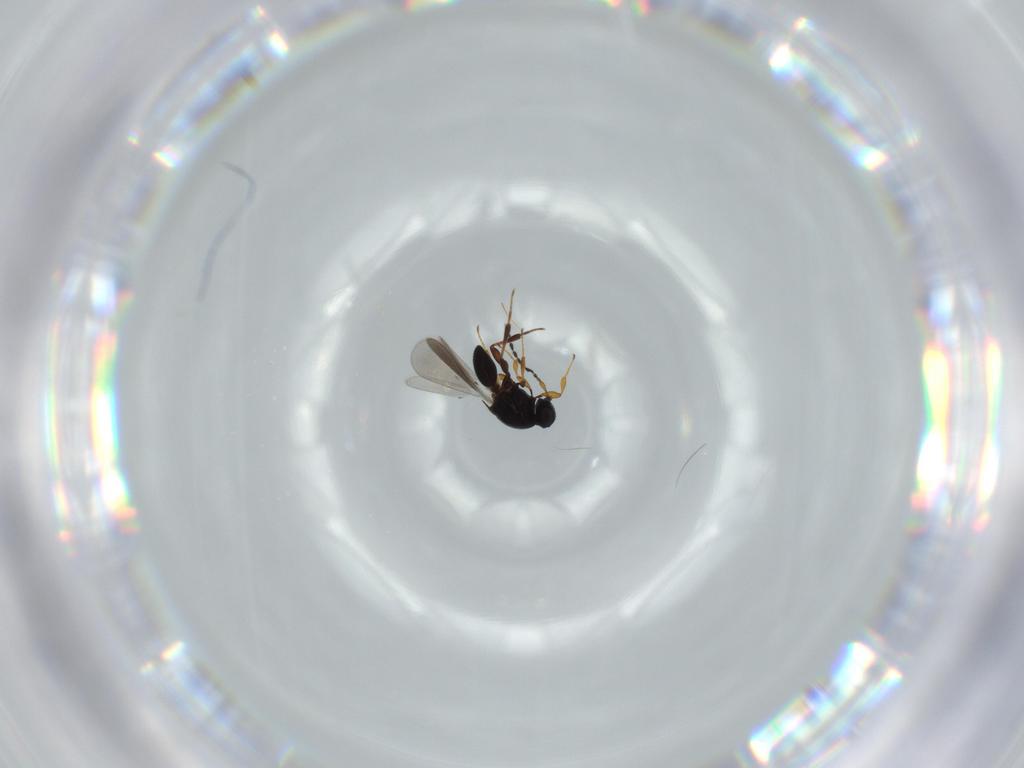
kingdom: Animalia
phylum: Arthropoda
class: Insecta
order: Hymenoptera
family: Platygastridae
